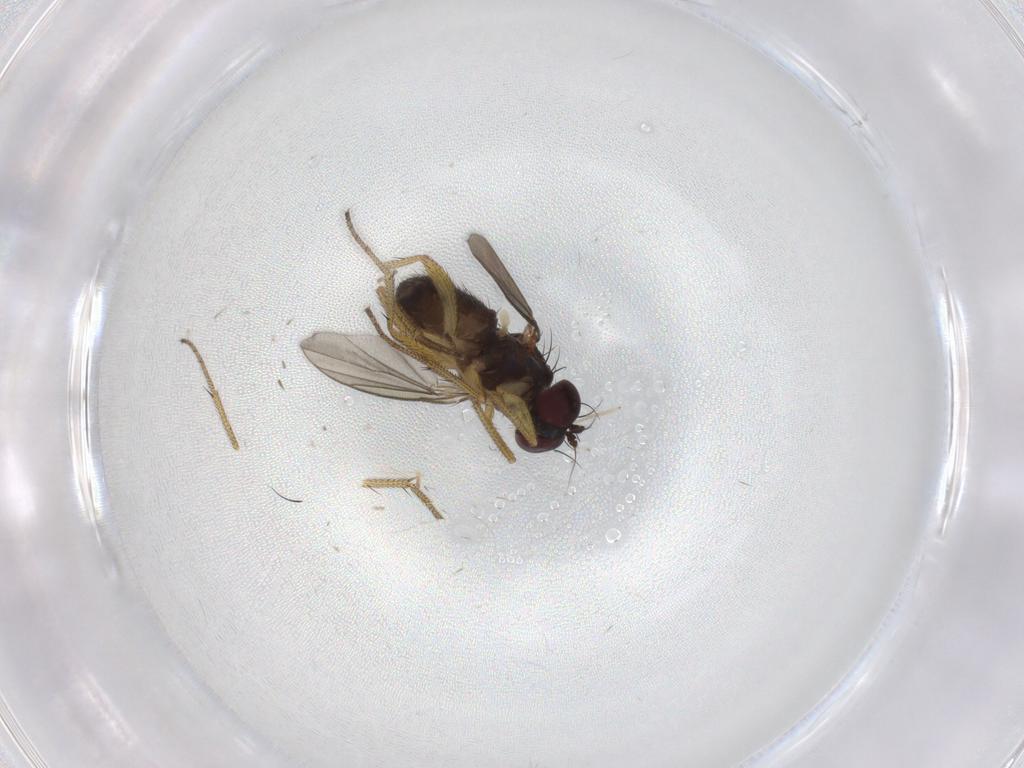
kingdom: Animalia
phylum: Arthropoda
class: Insecta
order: Diptera
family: Dolichopodidae
